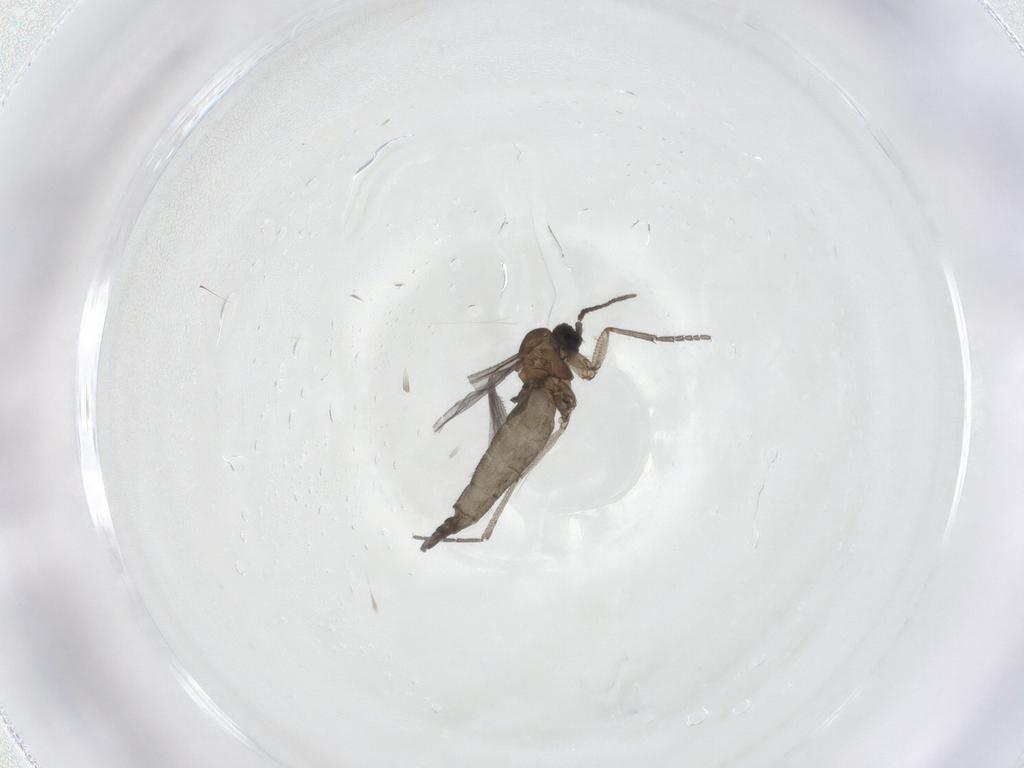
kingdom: Animalia
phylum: Arthropoda
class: Insecta
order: Diptera
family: Sciaridae
